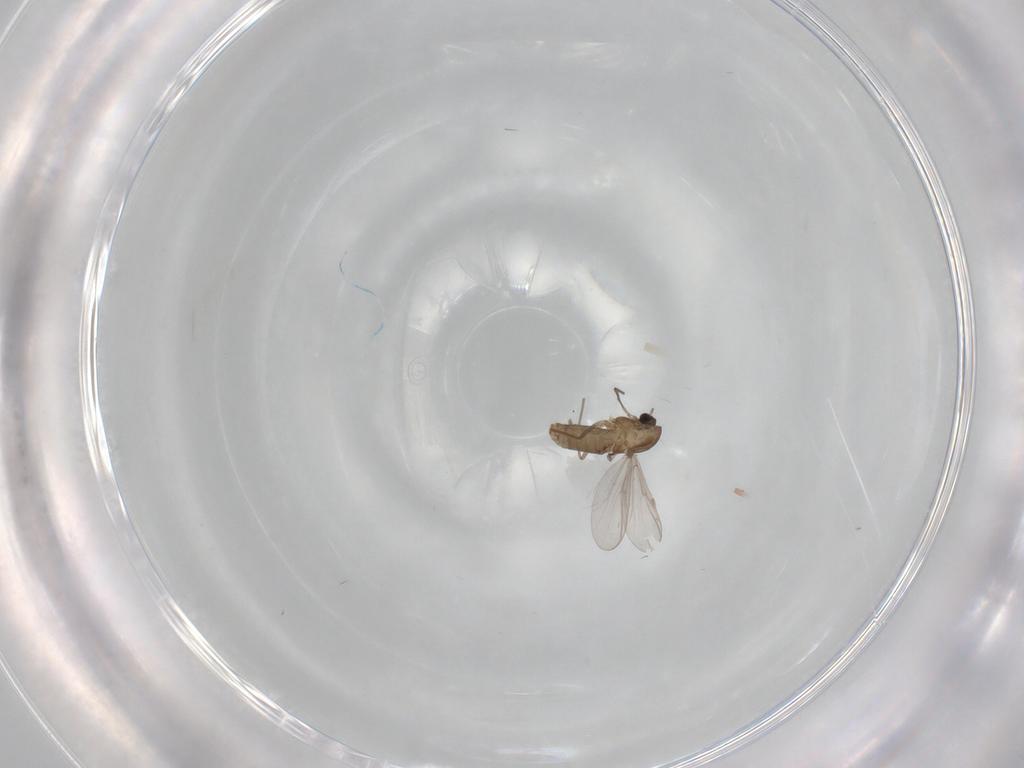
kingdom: Animalia
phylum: Arthropoda
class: Insecta
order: Diptera
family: Chironomidae
